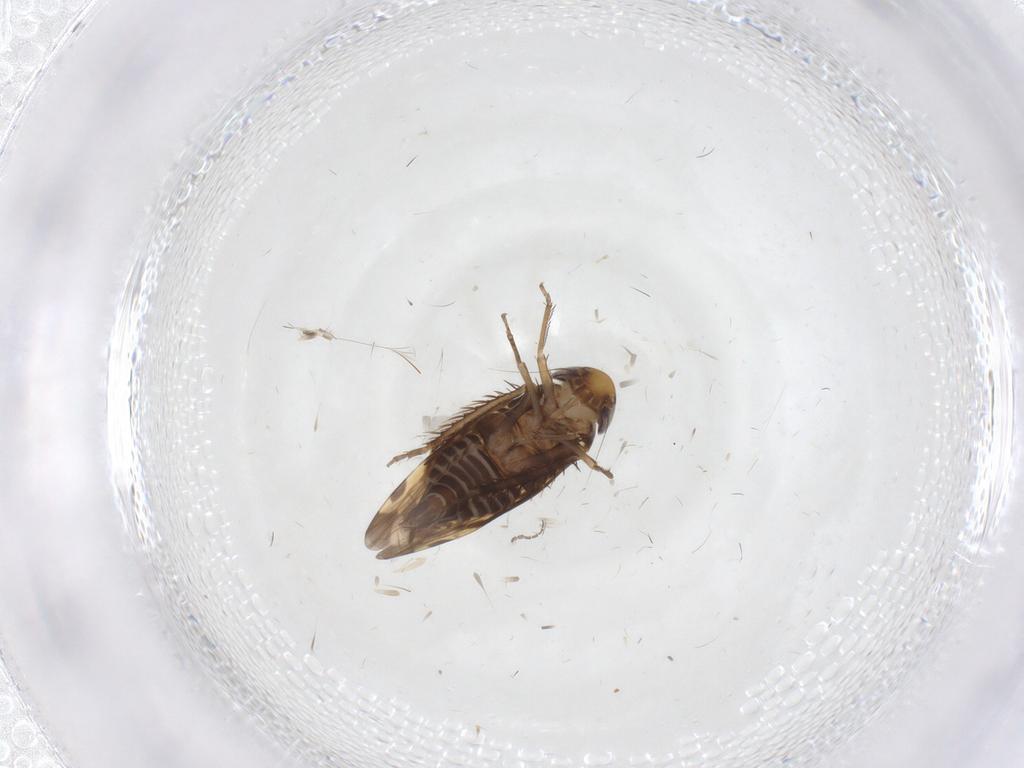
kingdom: Animalia
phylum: Arthropoda
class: Insecta
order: Hemiptera
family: Cicadellidae
